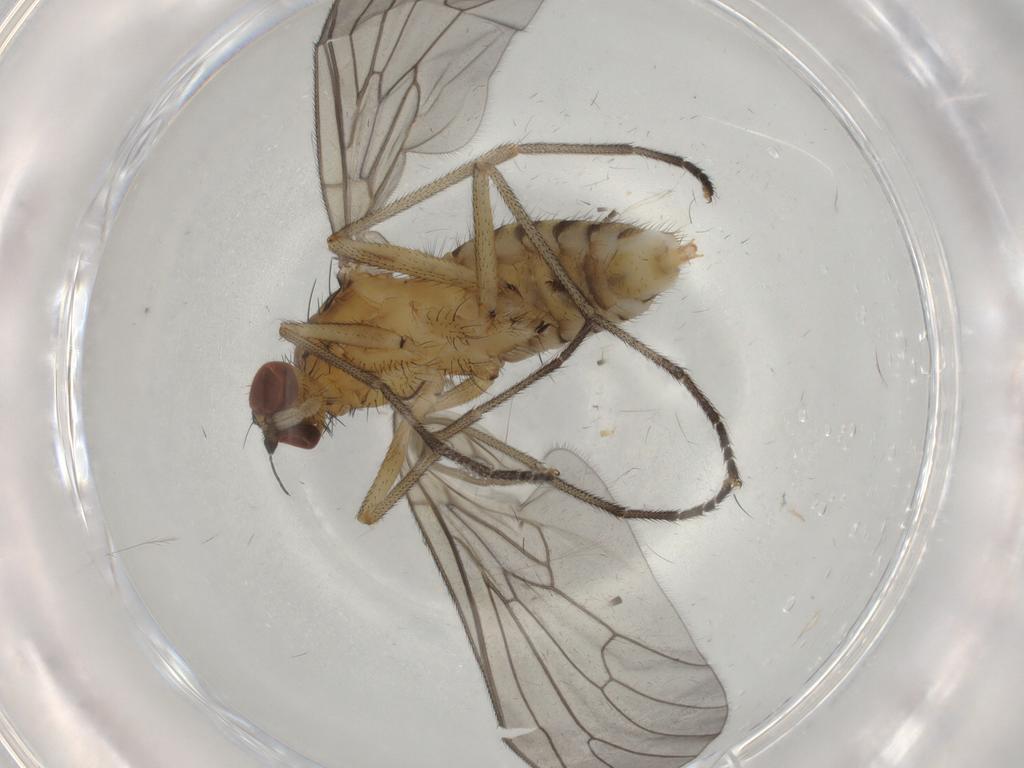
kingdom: Animalia
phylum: Arthropoda
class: Insecta
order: Diptera
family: Brachystomatidae
